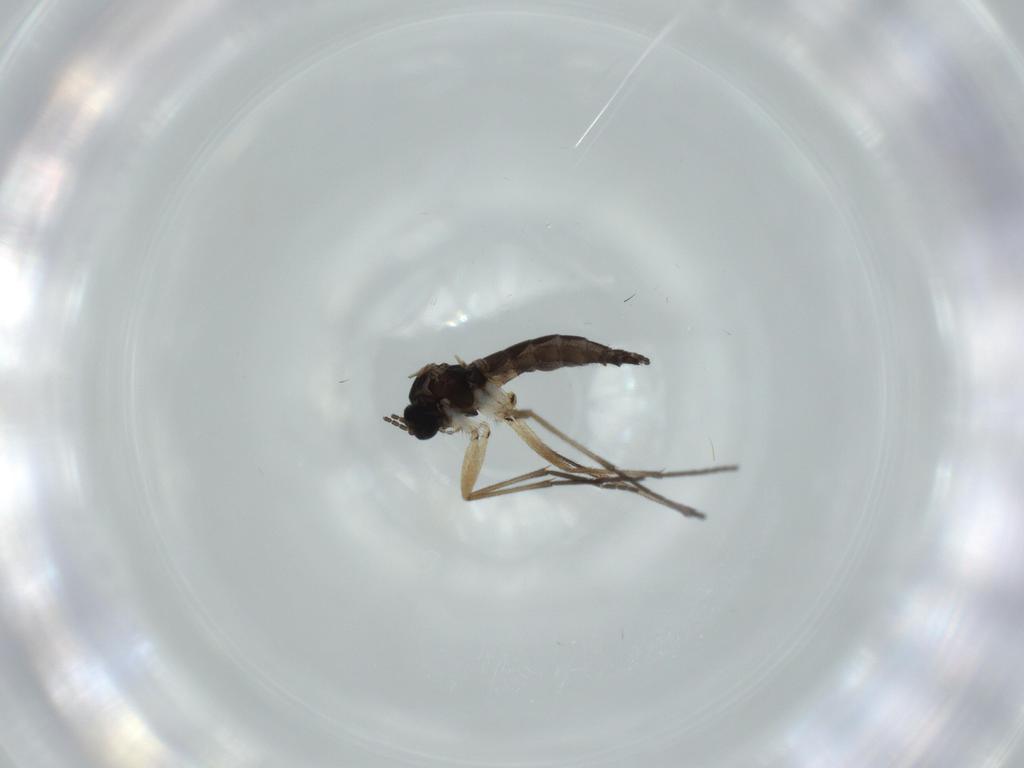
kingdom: Animalia
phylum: Arthropoda
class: Insecta
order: Diptera
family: Sciaridae
